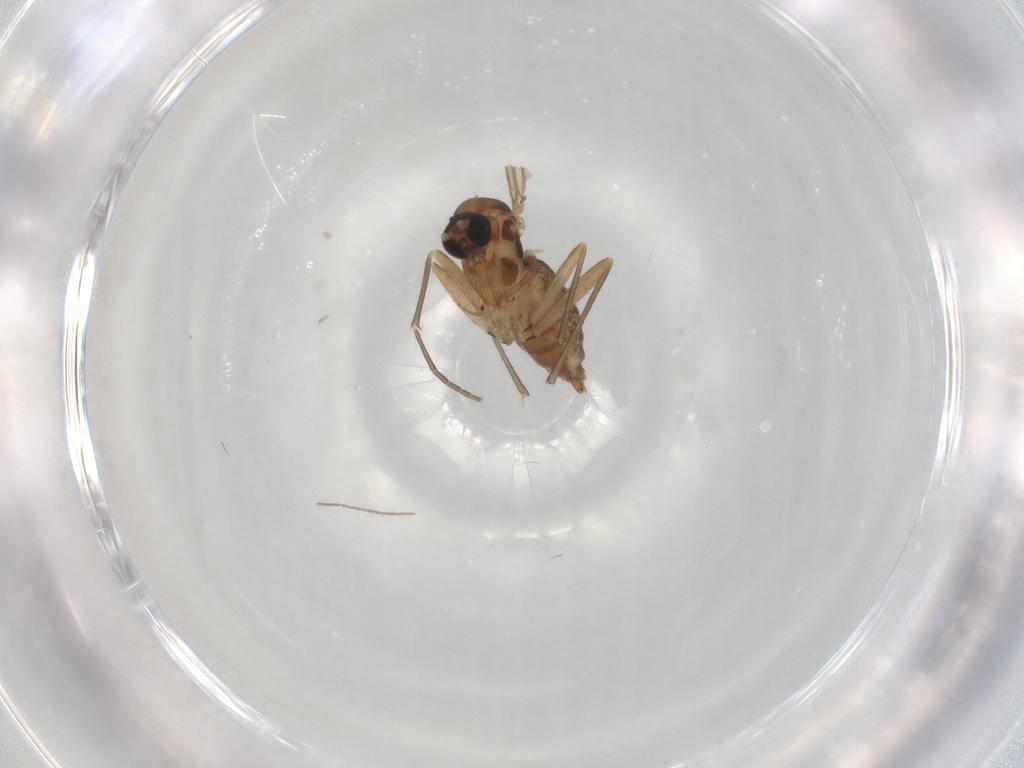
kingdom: Animalia
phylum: Arthropoda
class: Insecta
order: Diptera
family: Sciaridae
